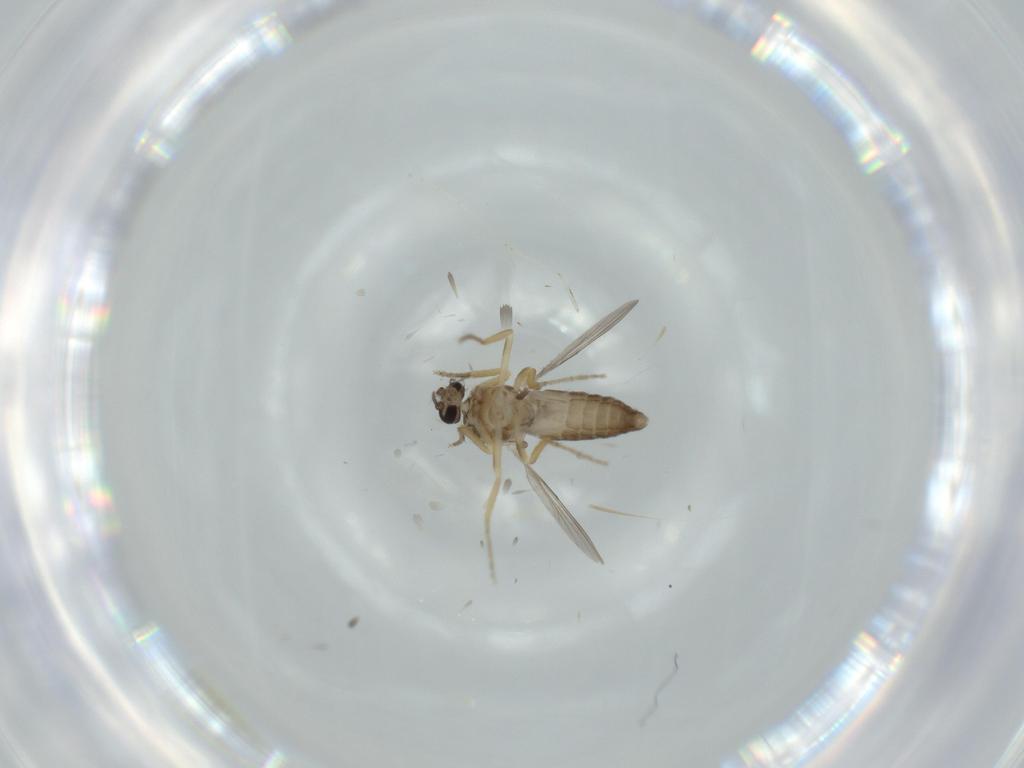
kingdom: Animalia
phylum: Arthropoda
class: Insecta
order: Diptera
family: Ceratopogonidae
